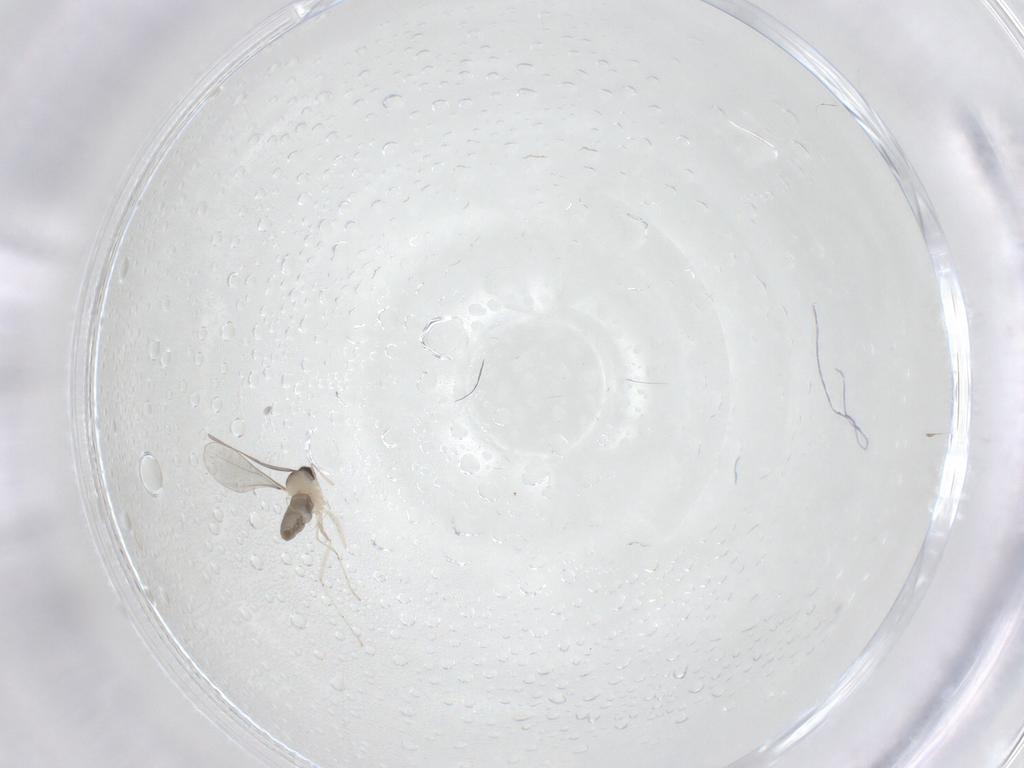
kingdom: Animalia
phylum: Arthropoda
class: Insecta
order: Diptera
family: Cecidomyiidae
